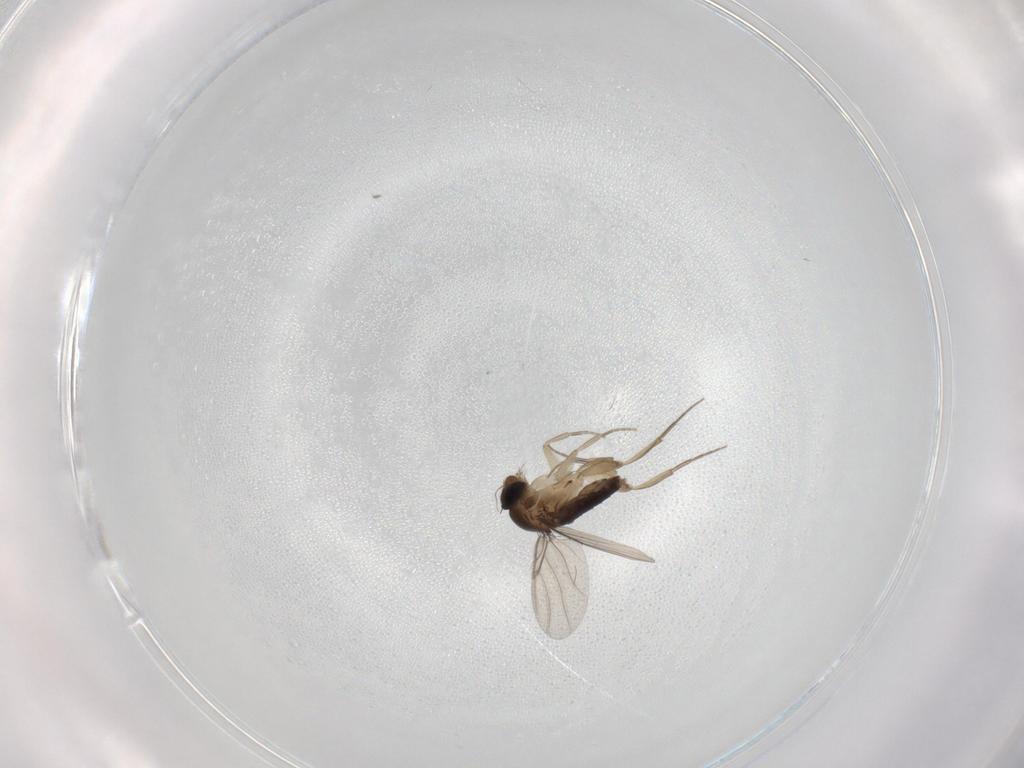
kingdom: Animalia
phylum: Arthropoda
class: Insecta
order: Diptera
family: Phoridae
